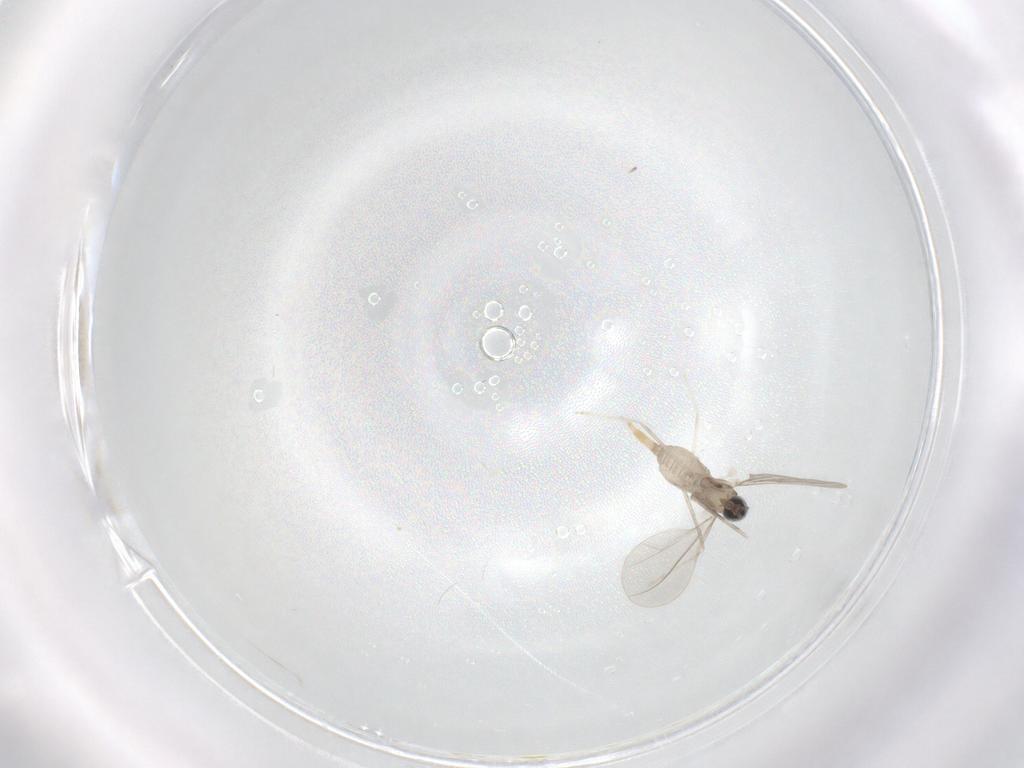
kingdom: Animalia
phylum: Arthropoda
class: Insecta
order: Diptera
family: Cecidomyiidae
